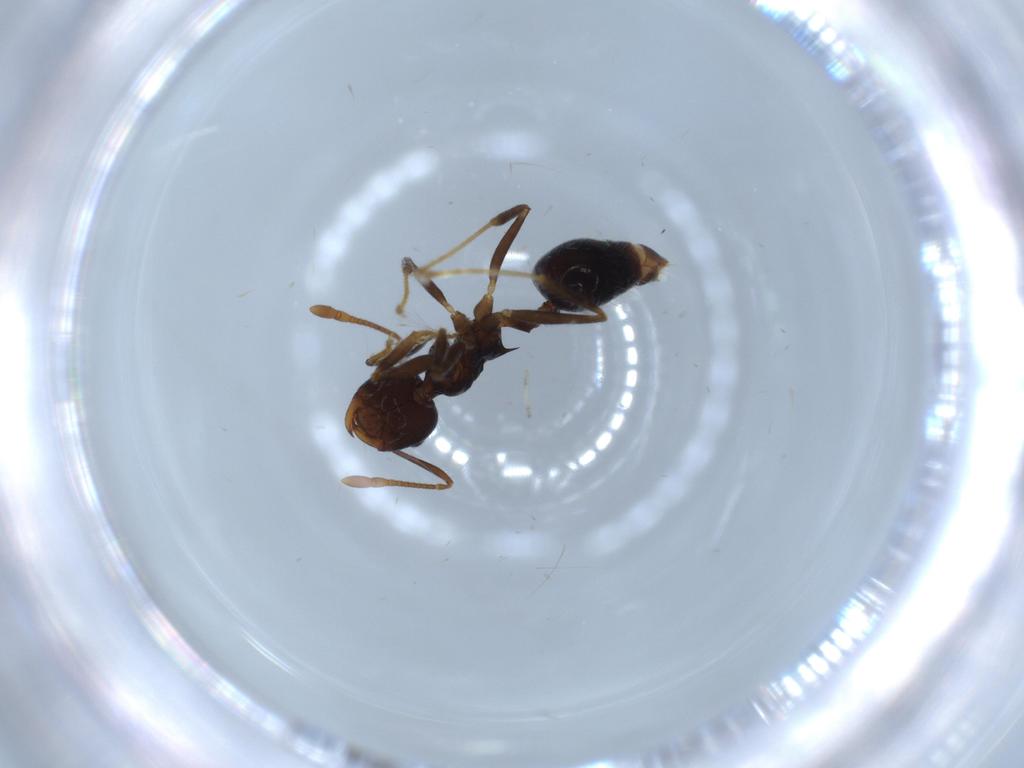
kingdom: Animalia
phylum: Arthropoda
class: Insecta
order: Hymenoptera
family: Formicidae
